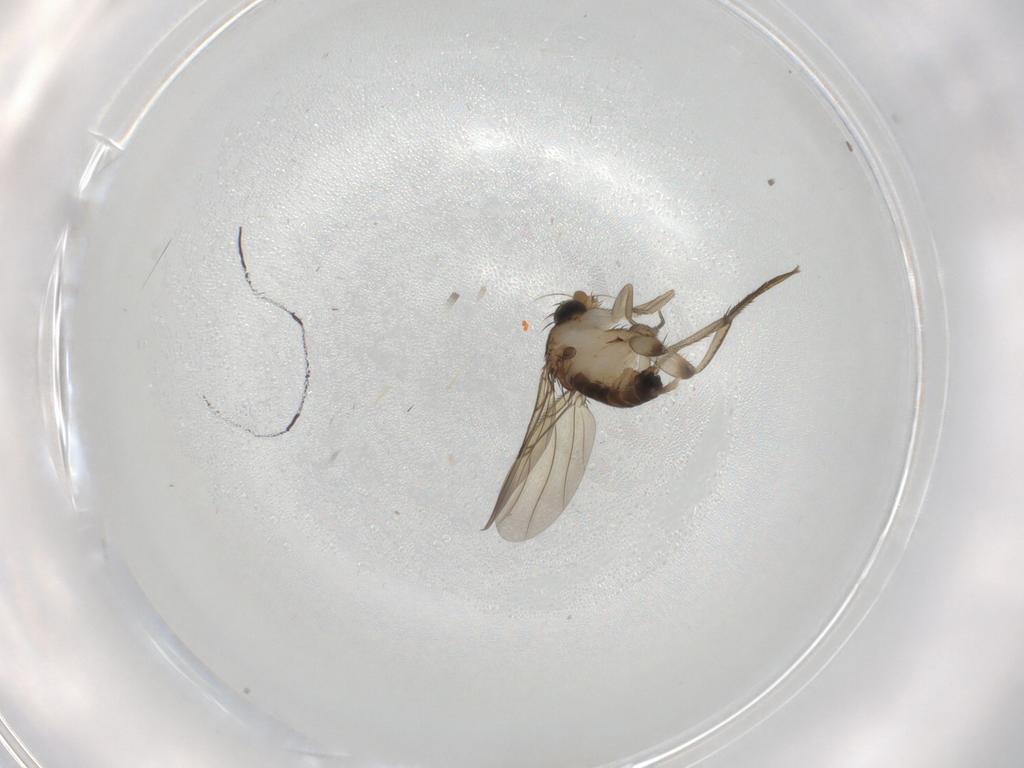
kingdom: Animalia
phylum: Arthropoda
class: Insecta
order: Diptera
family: Phoridae
